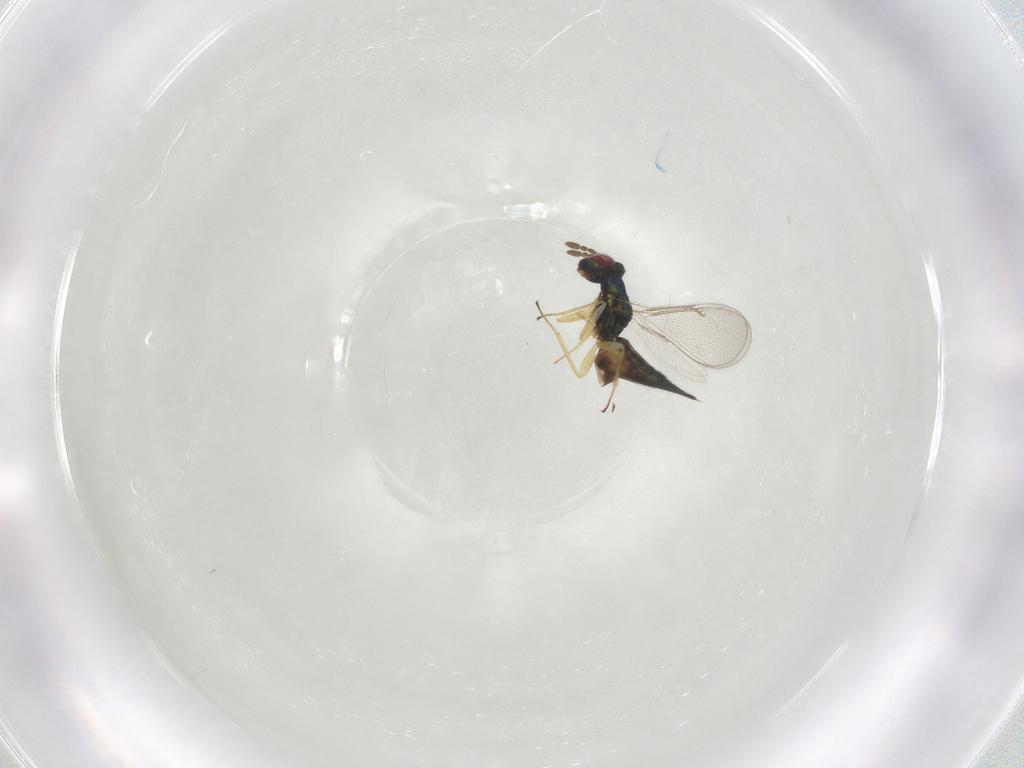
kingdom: Animalia
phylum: Arthropoda
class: Insecta
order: Hymenoptera
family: Eulophidae
